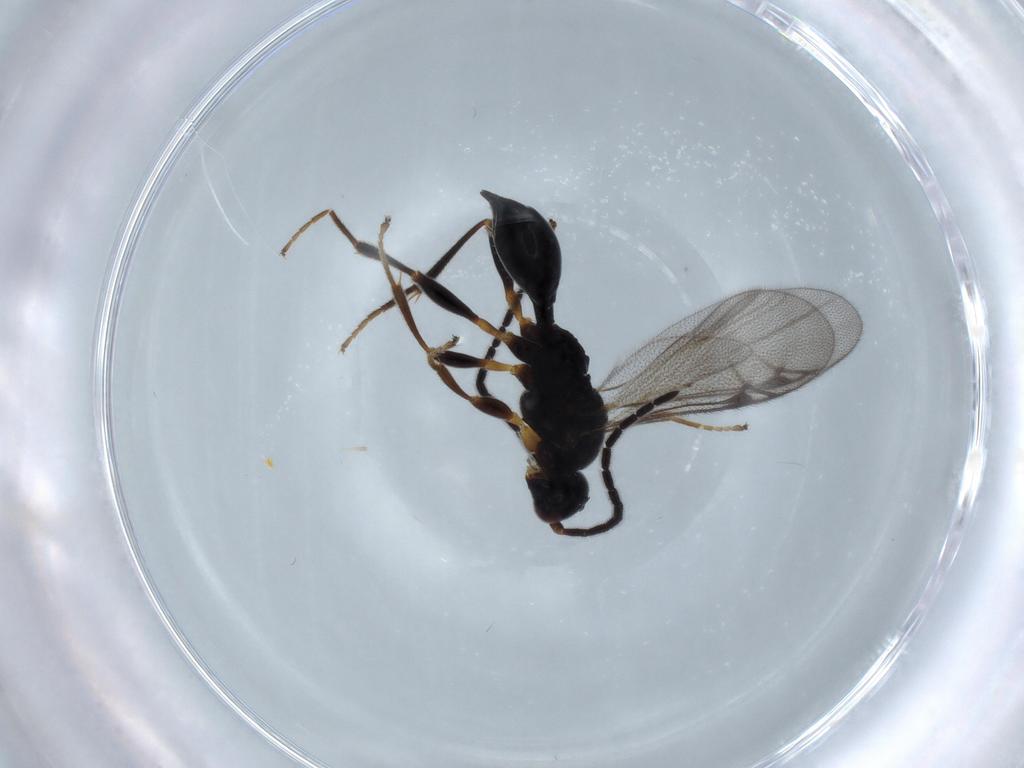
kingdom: Animalia
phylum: Arthropoda
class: Insecta
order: Hymenoptera
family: Proctotrupidae
